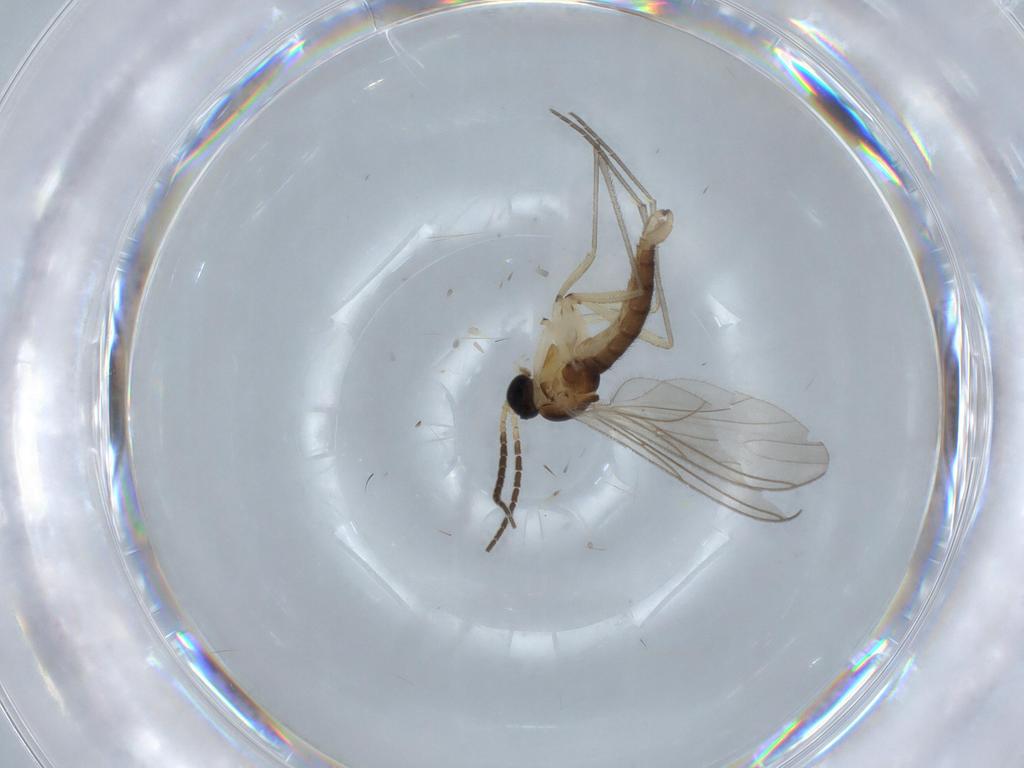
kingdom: Animalia
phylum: Arthropoda
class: Insecta
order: Diptera
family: Sciaridae
